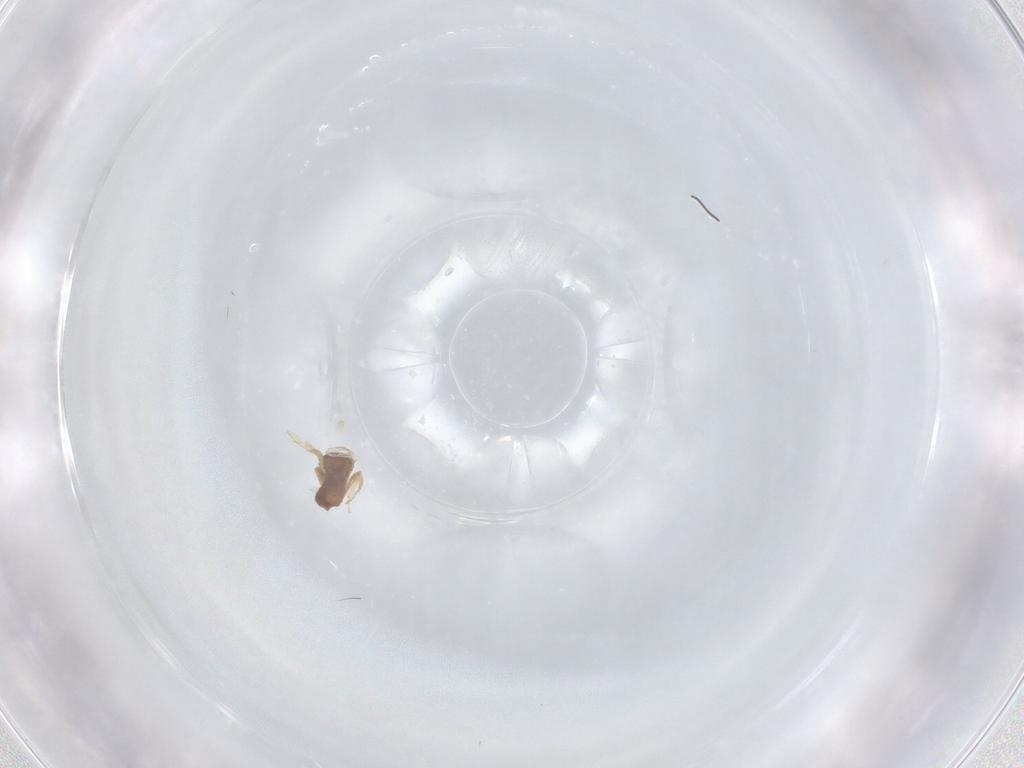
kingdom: Animalia
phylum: Arthropoda
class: Insecta
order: Diptera
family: Ceratopogonidae
